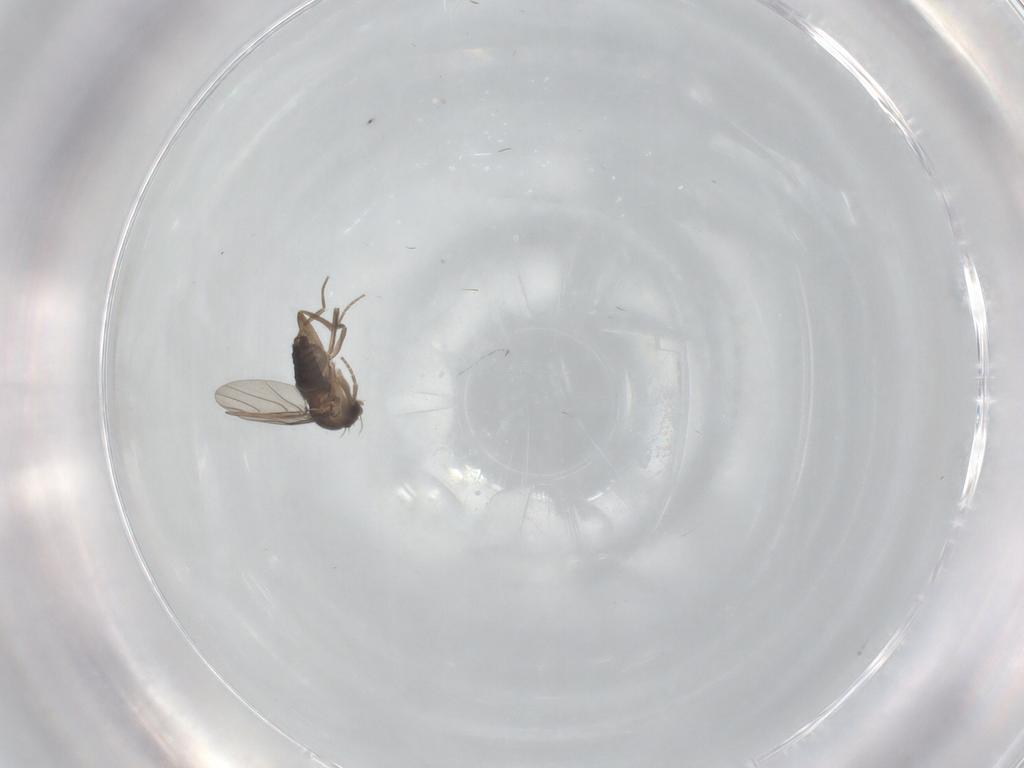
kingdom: Animalia
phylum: Arthropoda
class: Insecta
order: Diptera
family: Phoridae
